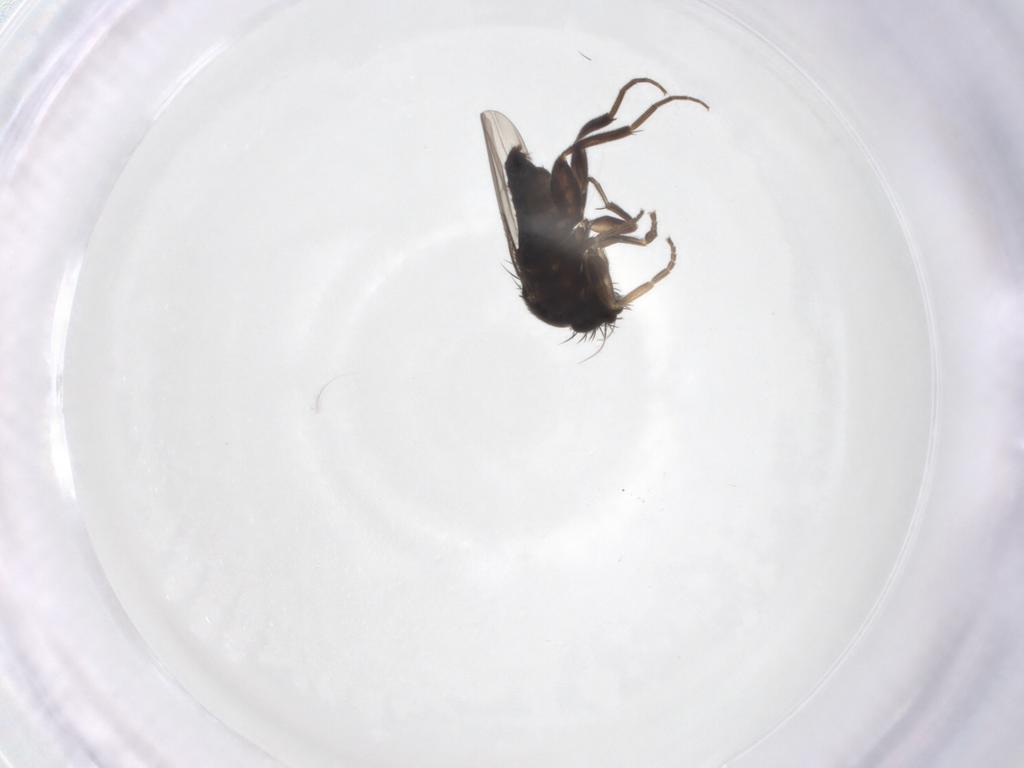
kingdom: Animalia
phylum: Arthropoda
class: Insecta
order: Diptera
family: Phoridae
